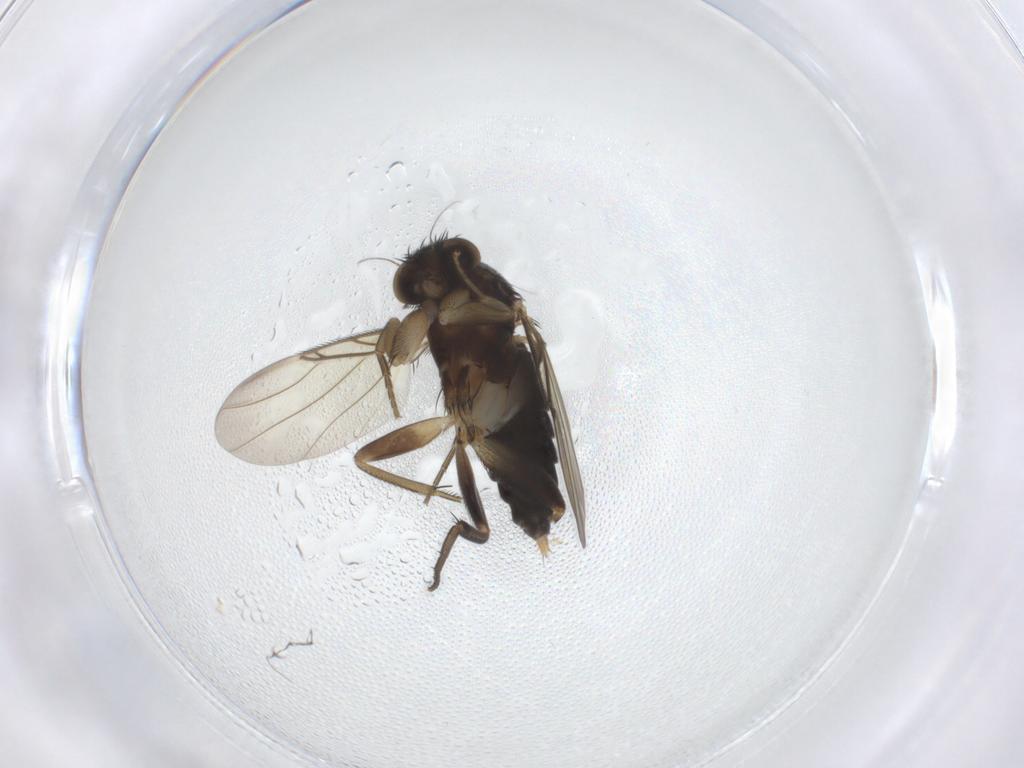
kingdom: Animalia
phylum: Arthropoda
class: Insecta
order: Diptera
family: Phoridae
